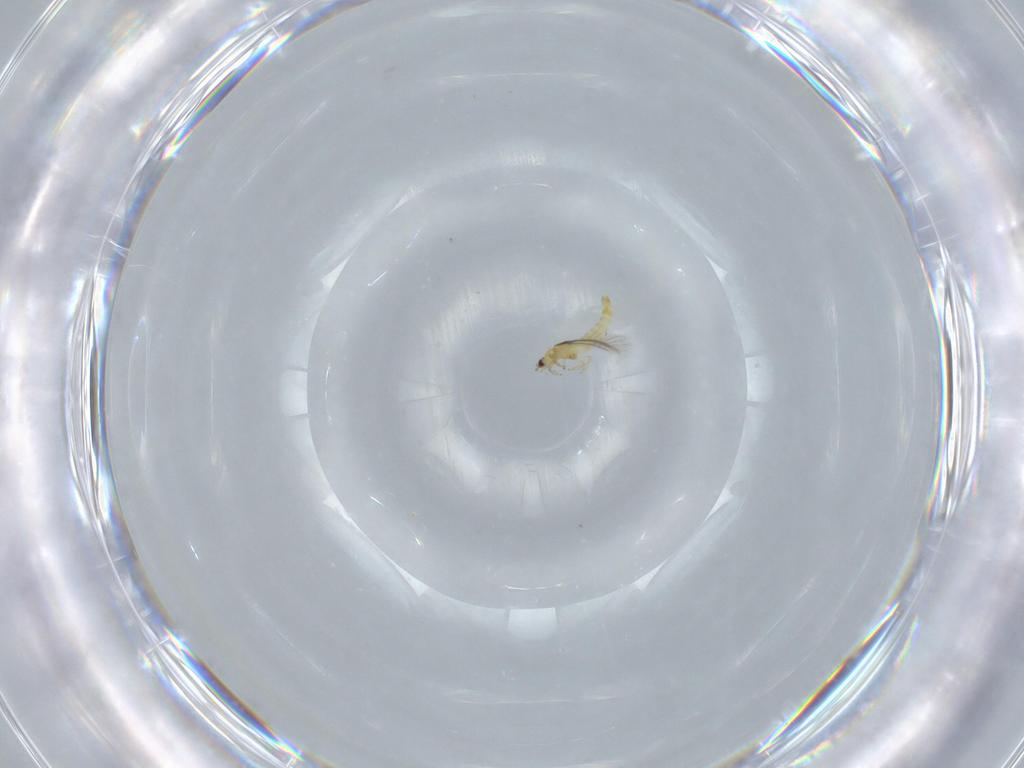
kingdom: Animalia
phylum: Arthropoda
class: Insecta
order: Thysanoptera
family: Thripidae
